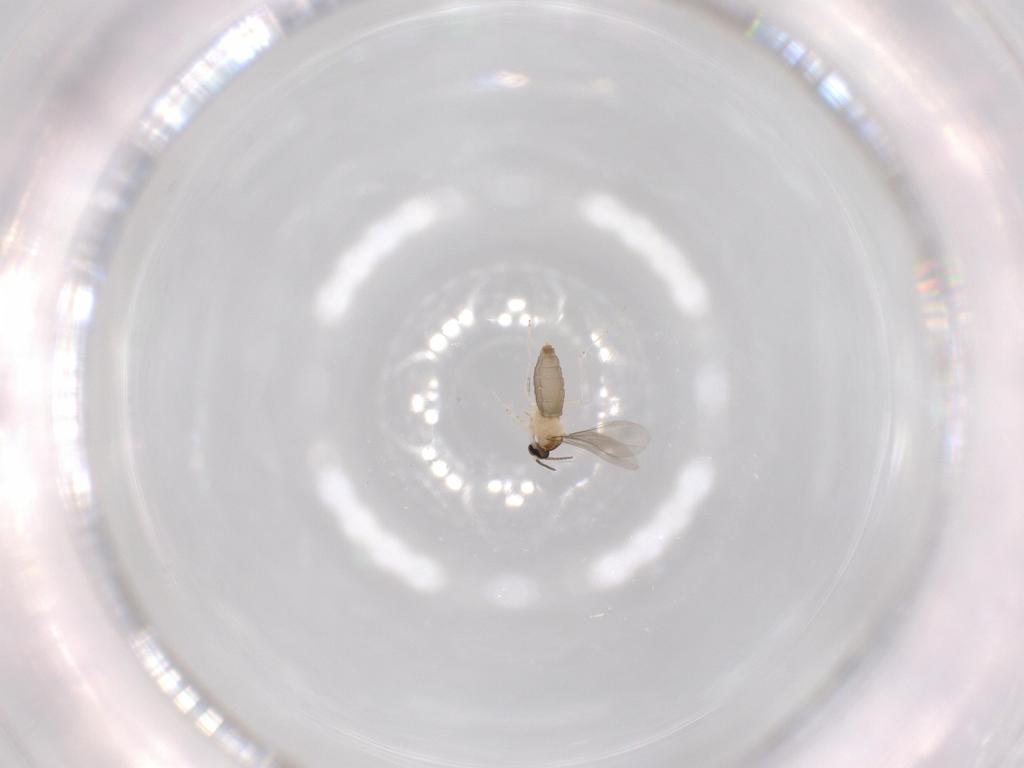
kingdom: Animalia
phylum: Arthropoda
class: Insecta
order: Diptera
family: Cecidomyiidae
